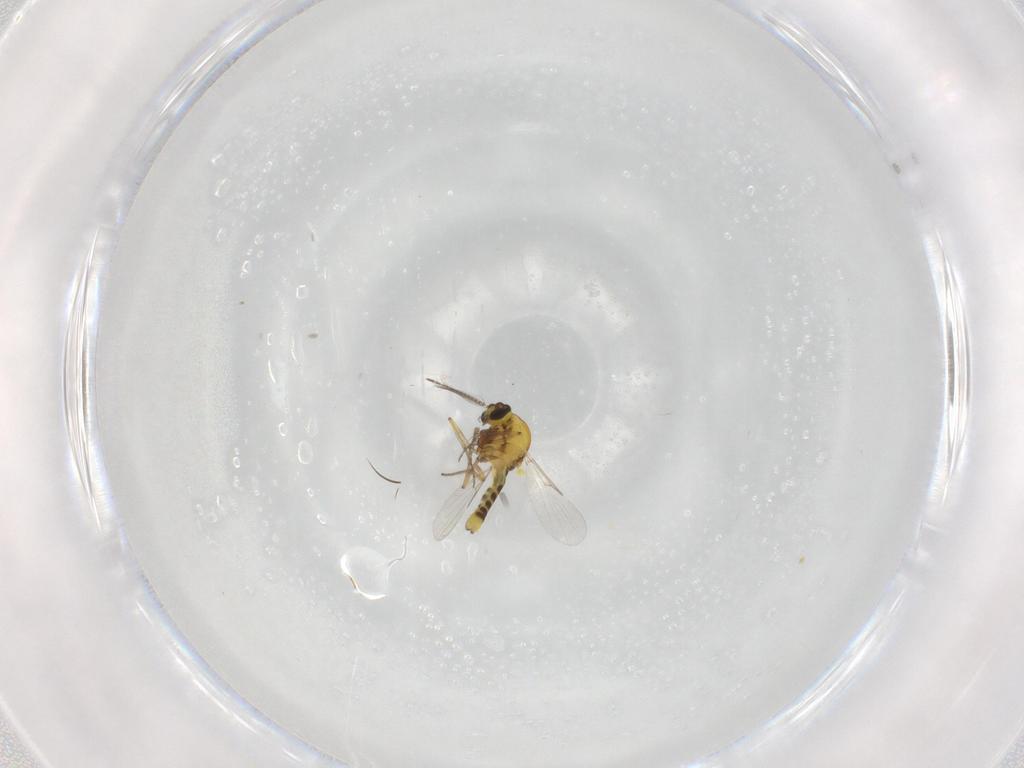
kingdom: Animalia
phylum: Arthropoda
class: Insecta
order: Diptera
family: Ceratopogonidae
